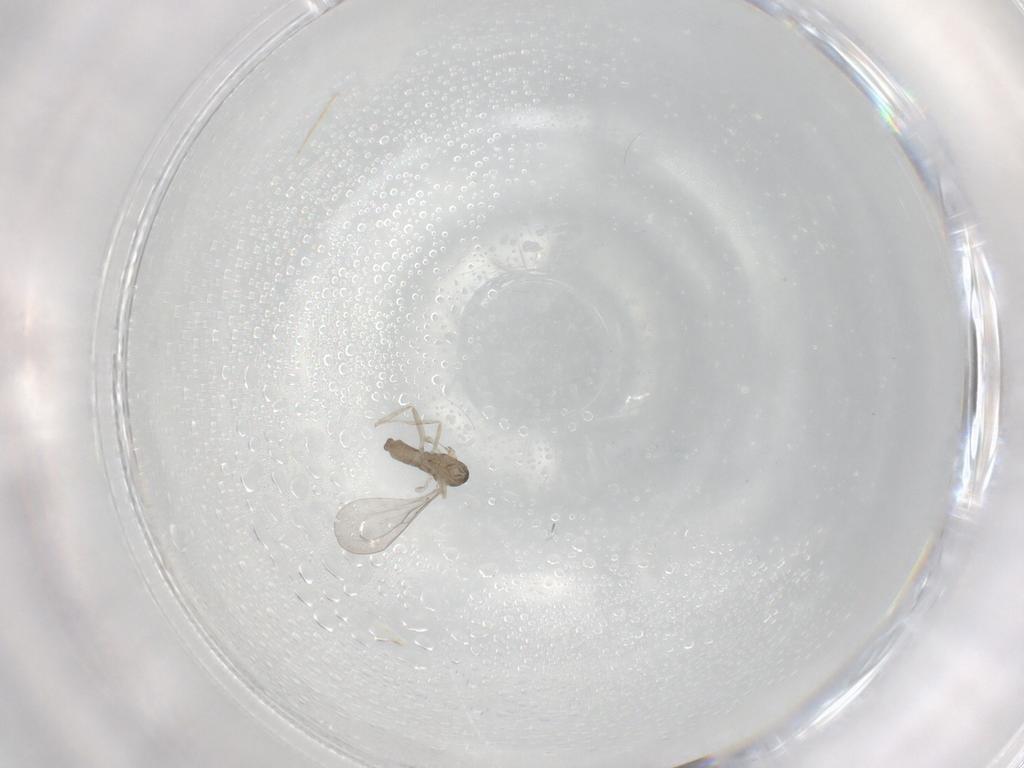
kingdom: Animalia
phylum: Arthropoda
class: Insecta
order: Diptera
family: Chironomidae
